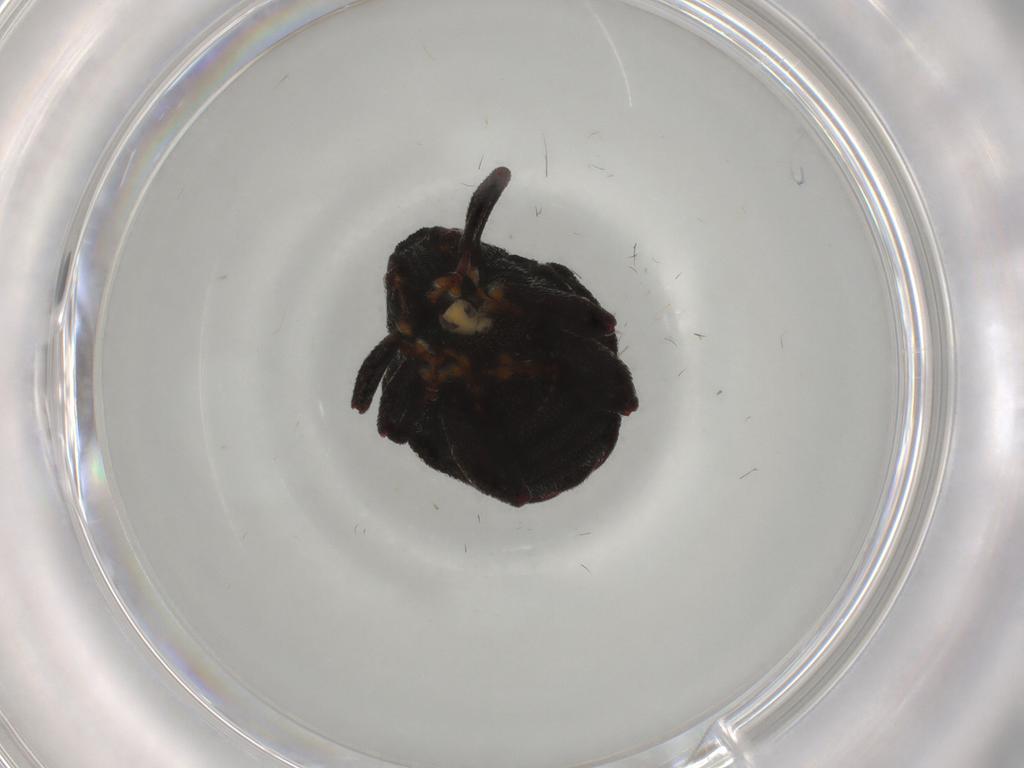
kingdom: Animalia
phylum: Arthropoda
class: Insecta
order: Coleoptera
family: Curculionidae
